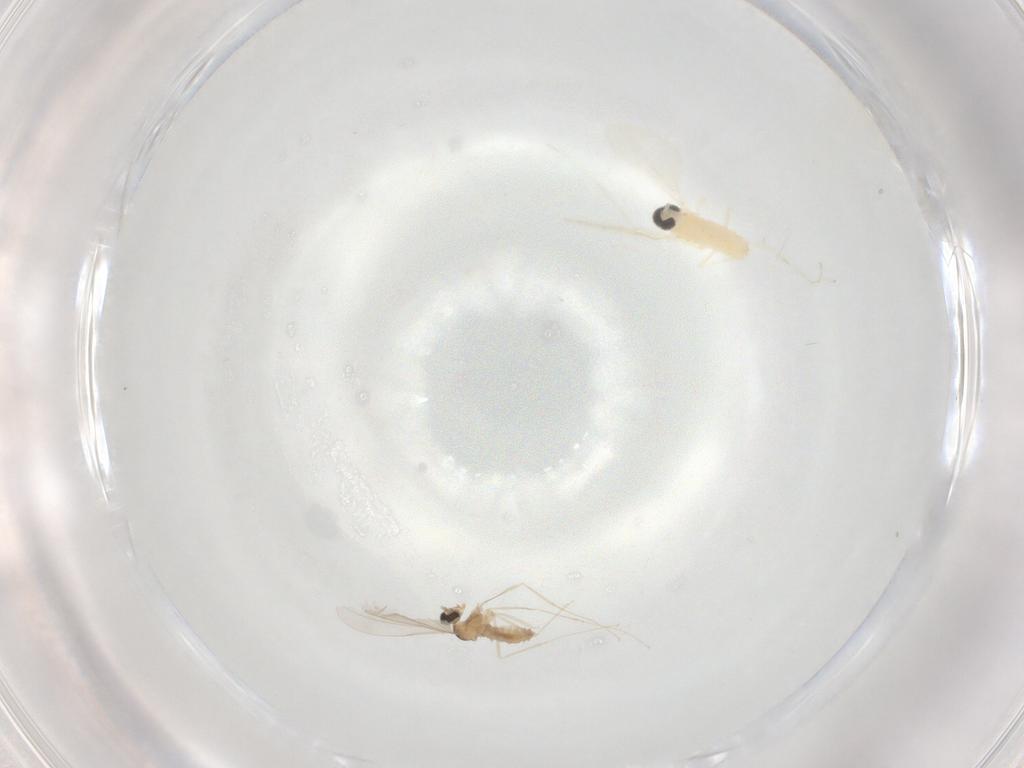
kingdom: Animalia
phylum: Arthropoda
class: Insecta
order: Diptera
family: Cecidomyiidae
